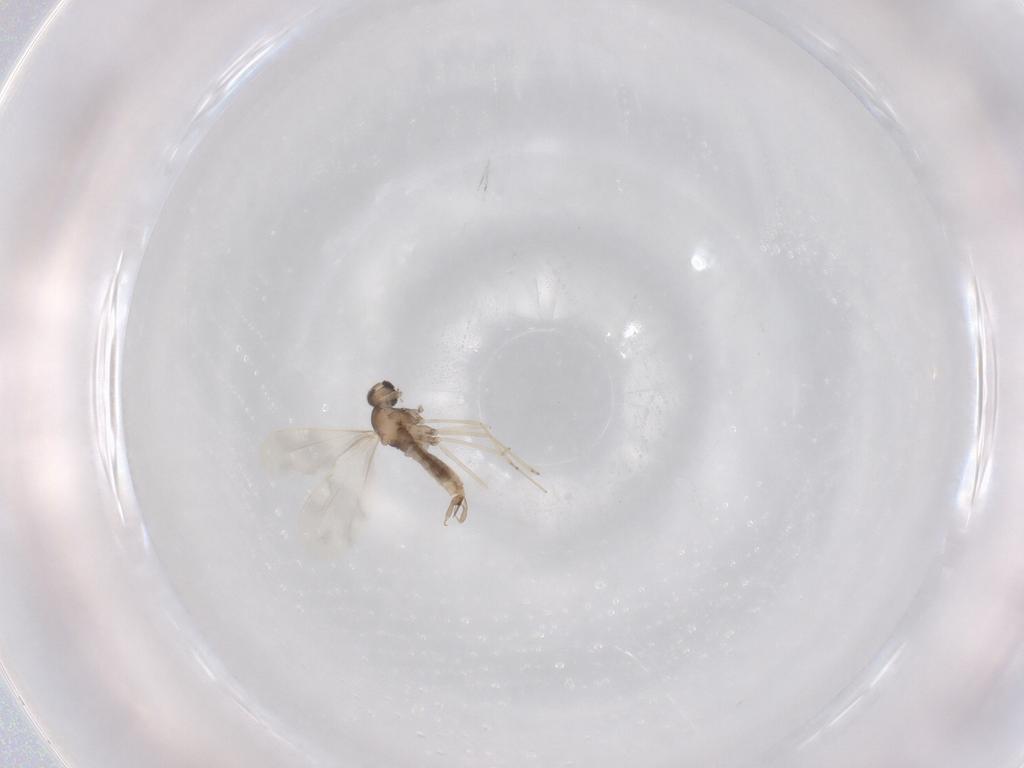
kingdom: Animalia
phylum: Arthropoda
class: Insecta
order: Diptera
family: Cecidomyiidae
